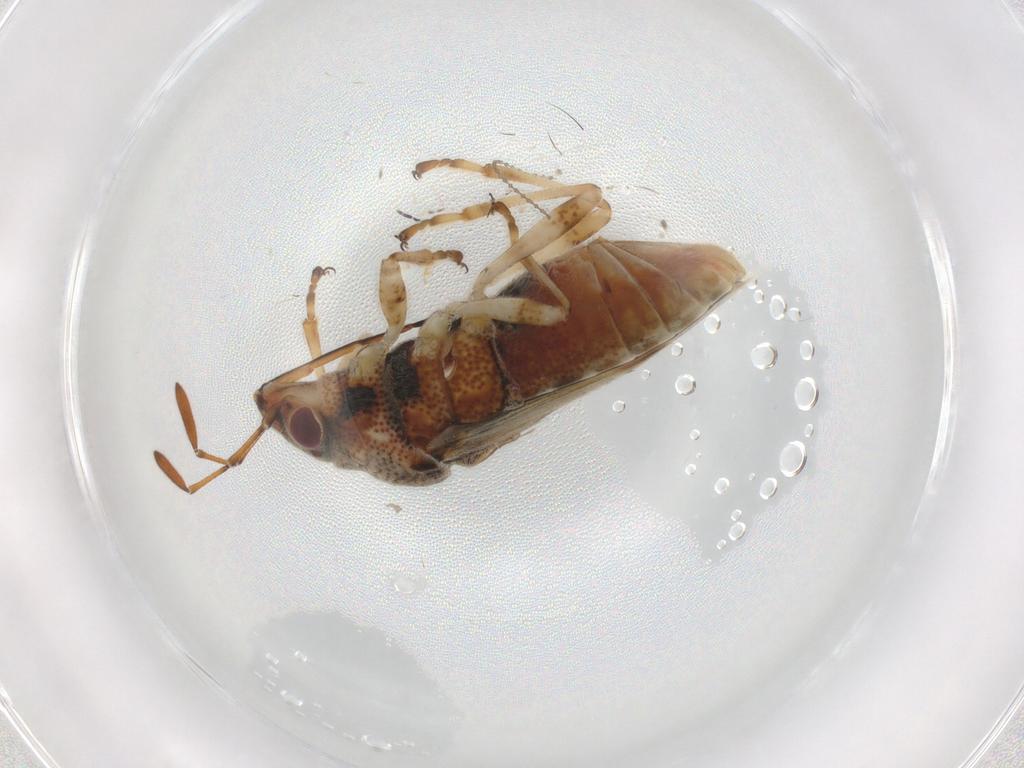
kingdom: Animalia
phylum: Arthropoda
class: Insecta
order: Hemiptera
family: Lygaeidae
